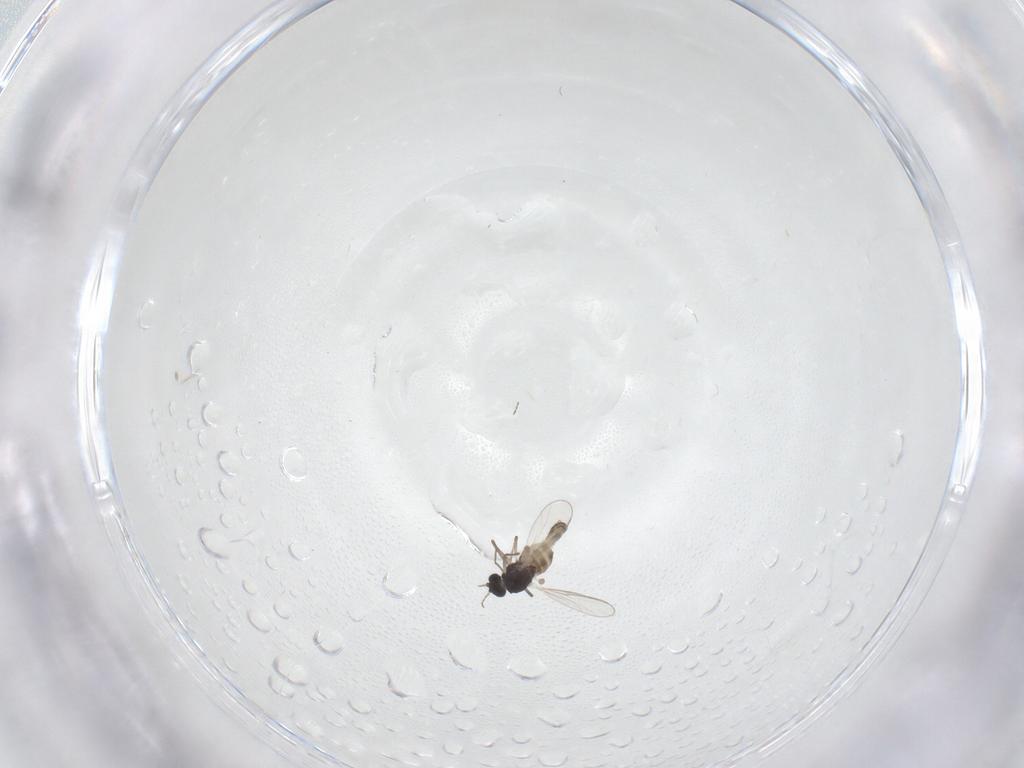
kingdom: Animalia
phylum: Arthropoda
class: Insecta
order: Diptera
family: Chironomidae
